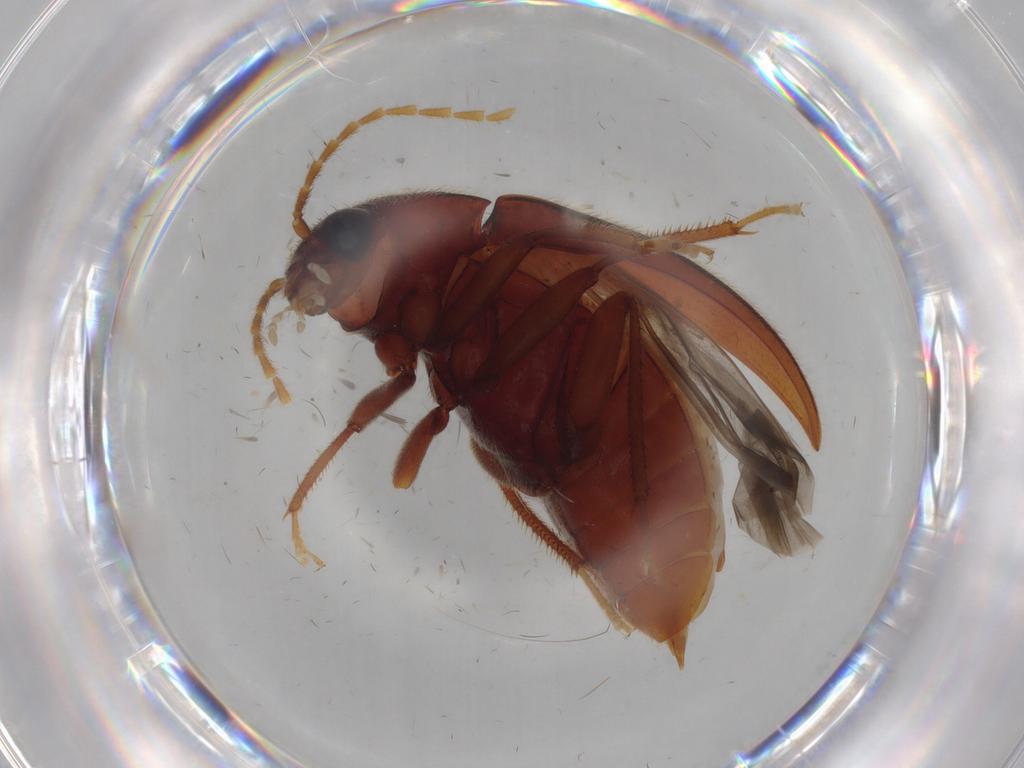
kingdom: Animalia
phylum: Arthropoda
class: Insecta
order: Coleoptera
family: Ptilodactylidae
